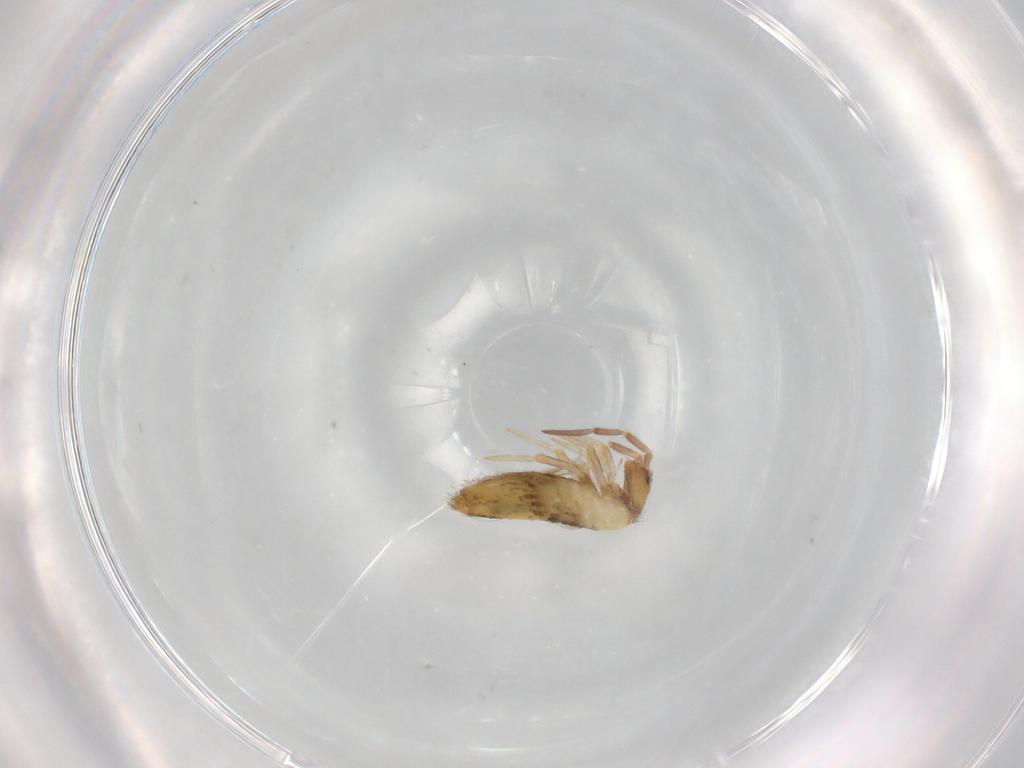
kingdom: Animalia
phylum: Arthropoda
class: Collembola
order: Entomobryomorpha
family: Entomobryidae
